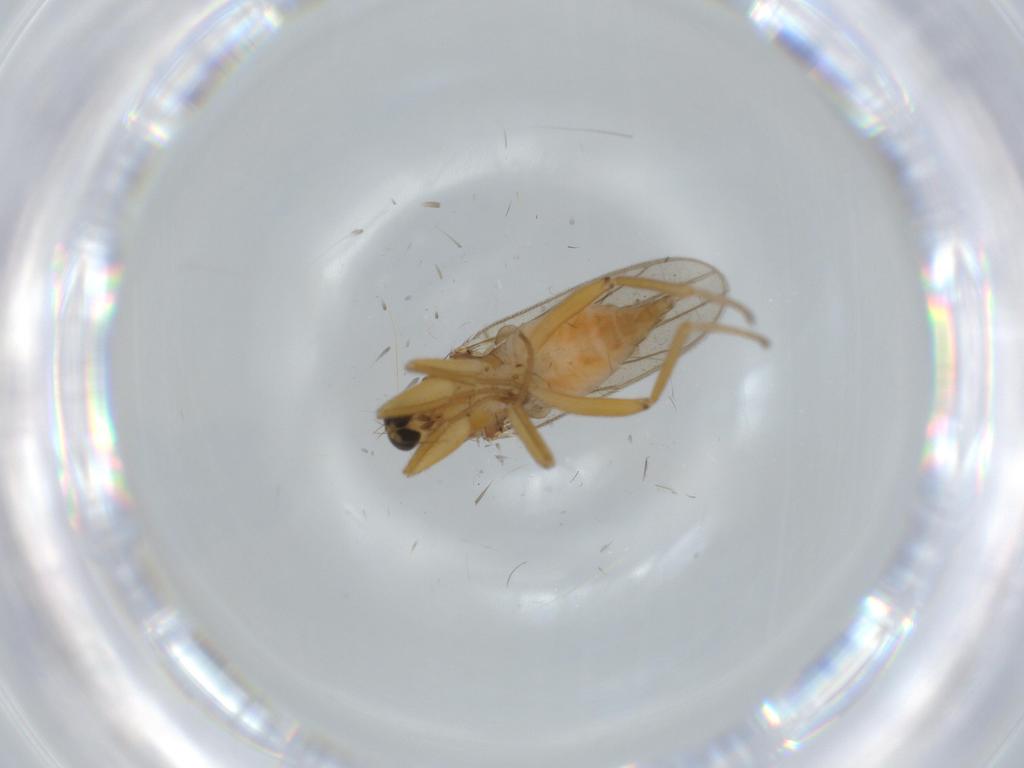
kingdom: Animalia
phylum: Arthropoda
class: Insecta
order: Diptera
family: Hybotidae
